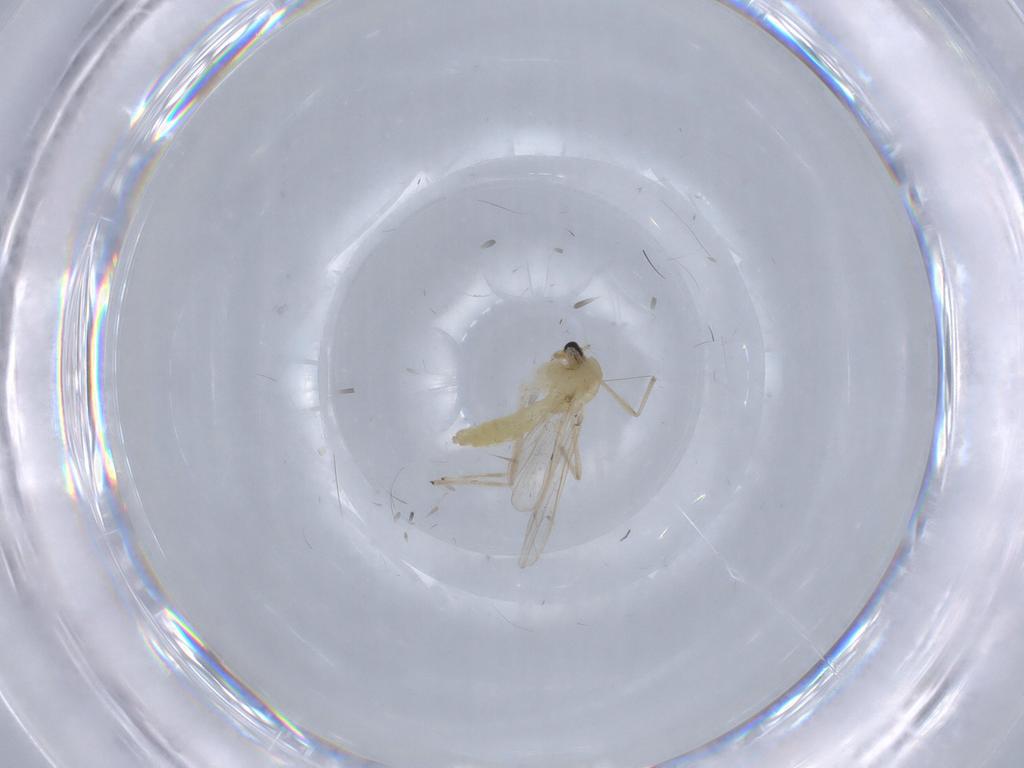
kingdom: Animalia
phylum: Arthropoda
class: Insecta
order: Diptera
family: Chironomidae
